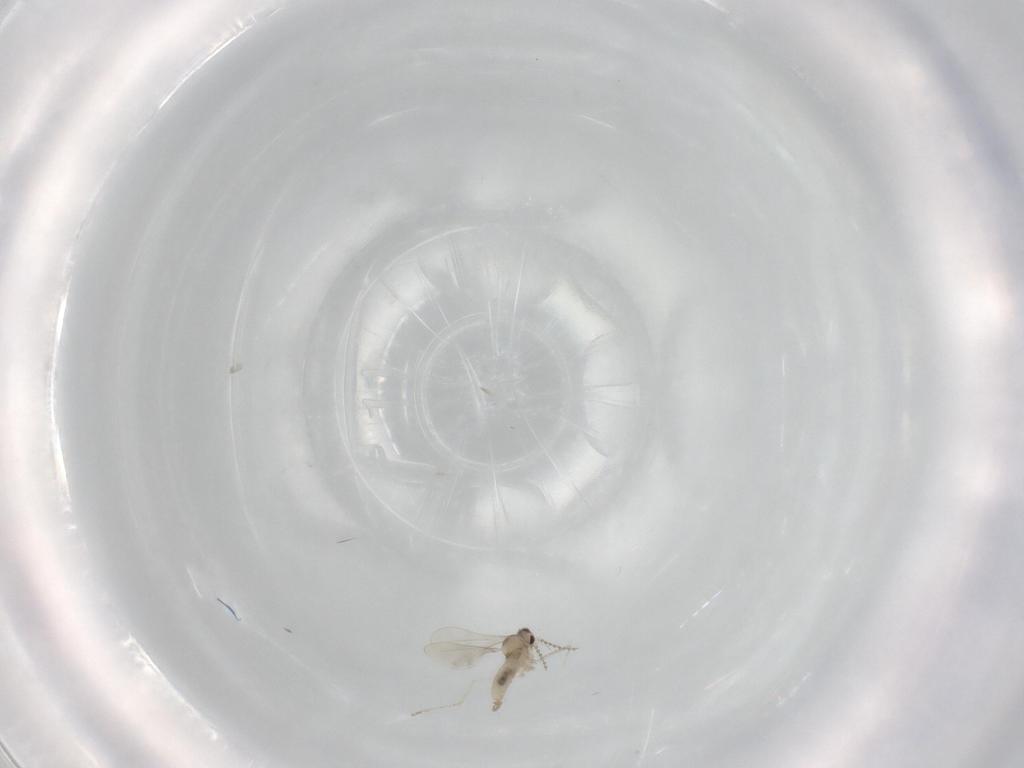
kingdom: Animalia
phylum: Arthropoda
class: Insecta
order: Diptera
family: Cecidomyiidae
